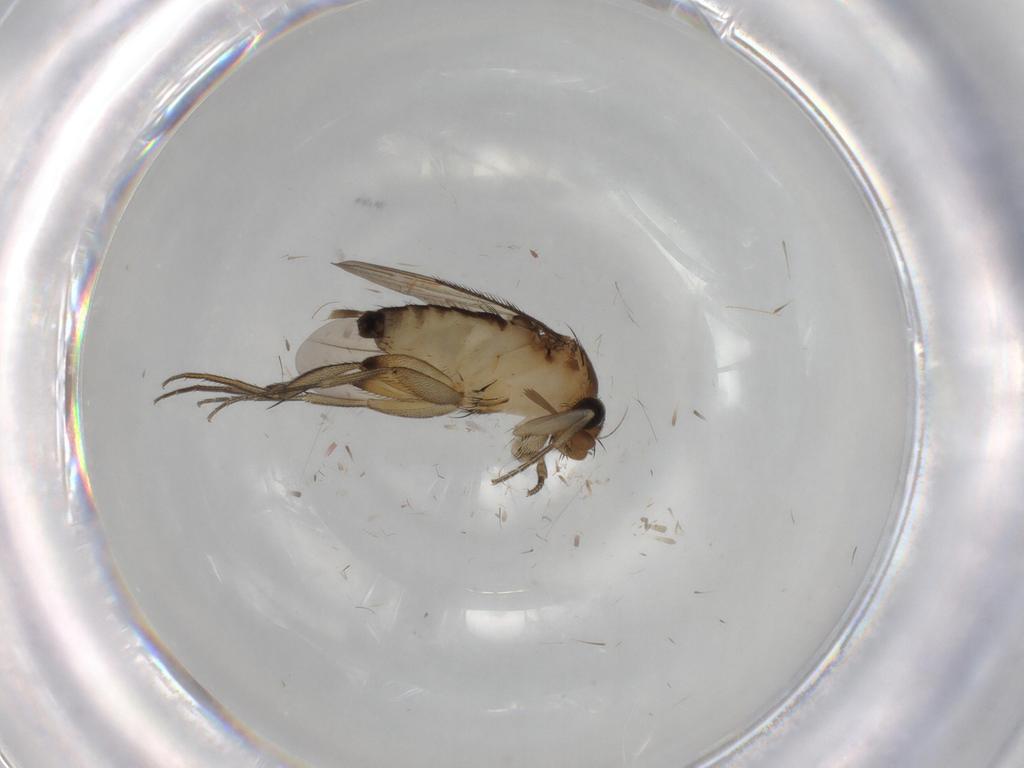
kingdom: Animalia
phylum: Arthropoda
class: Insecta
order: Diptera
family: Phoridae
